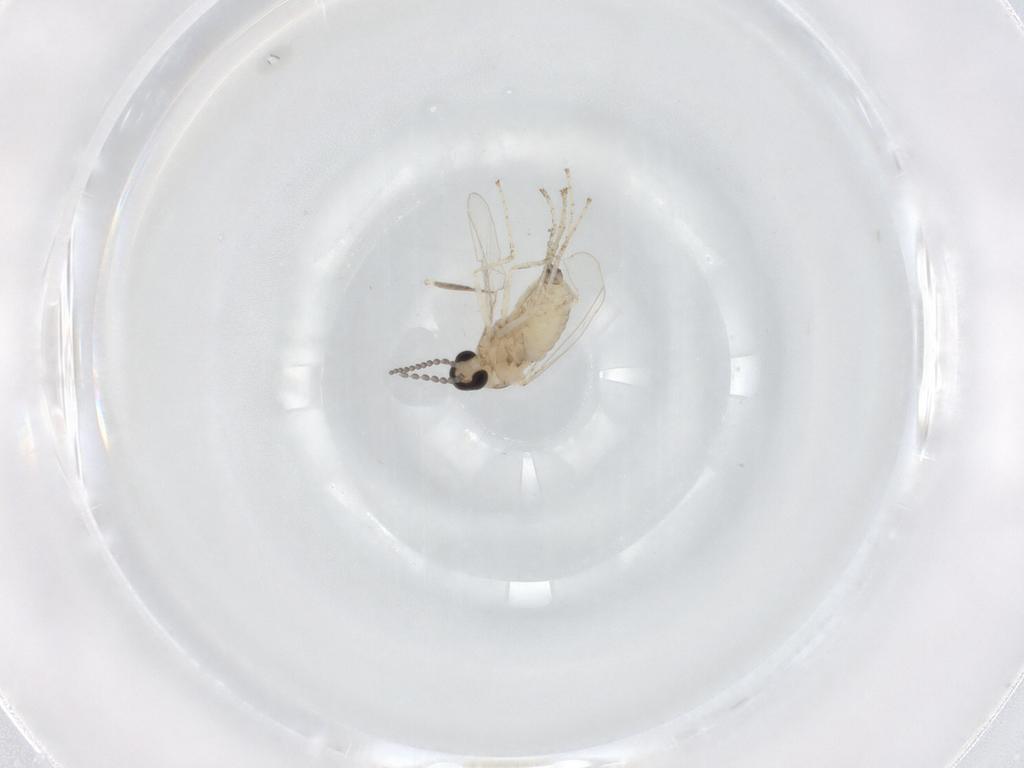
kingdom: Animalia
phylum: Arthropoda
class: Insecta
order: Diptera
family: Cecidomyiidae
